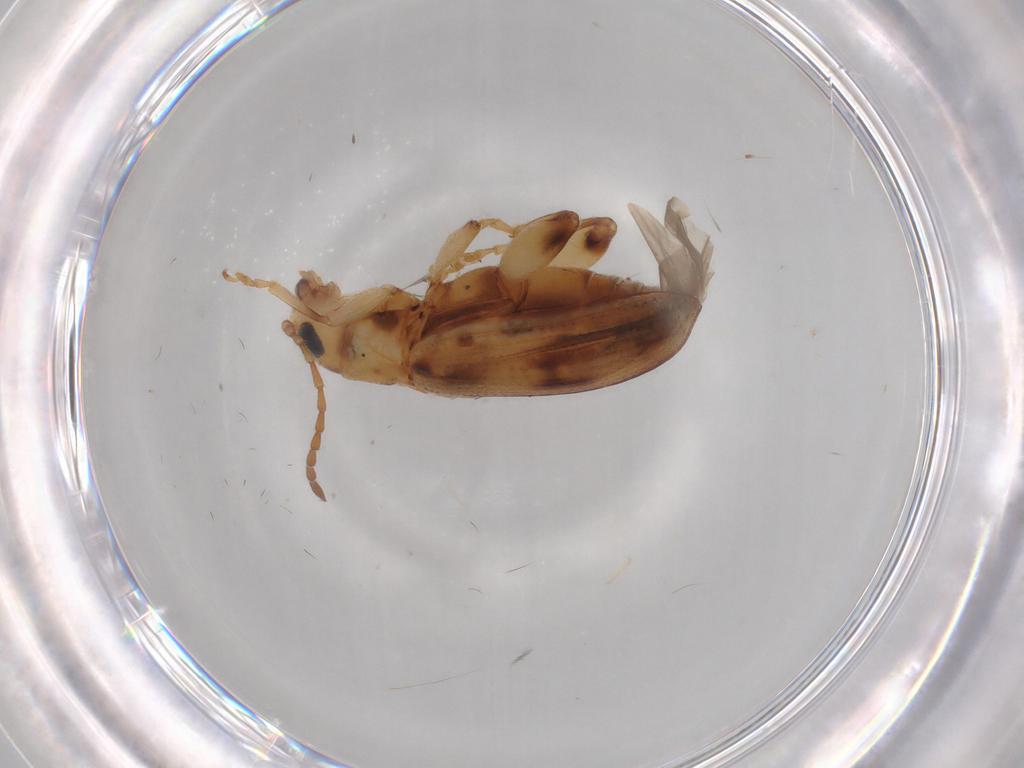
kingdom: Animalia
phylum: Arthropoda
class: Insecta
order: Coleoptera
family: Chrysomelidae
